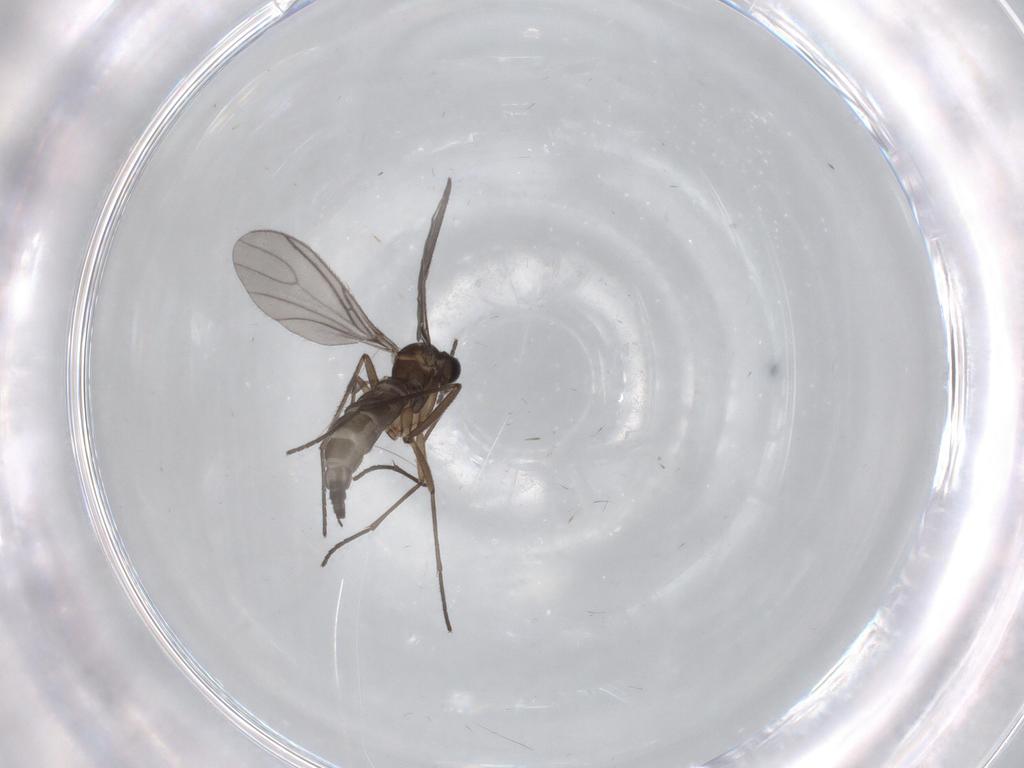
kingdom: Animalia
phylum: Arthropoda
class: Insecta
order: Diptera
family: Sciaridae
